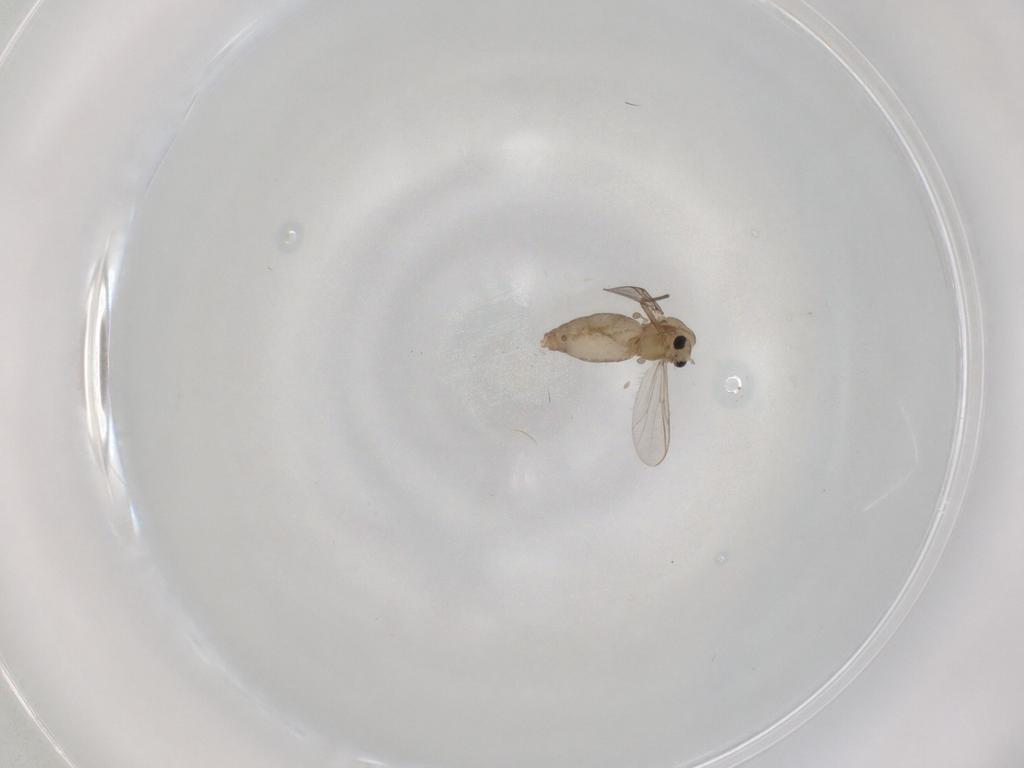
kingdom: Animalia
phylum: Arthropoda
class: Insecta
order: Diptera
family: Chironomidae
